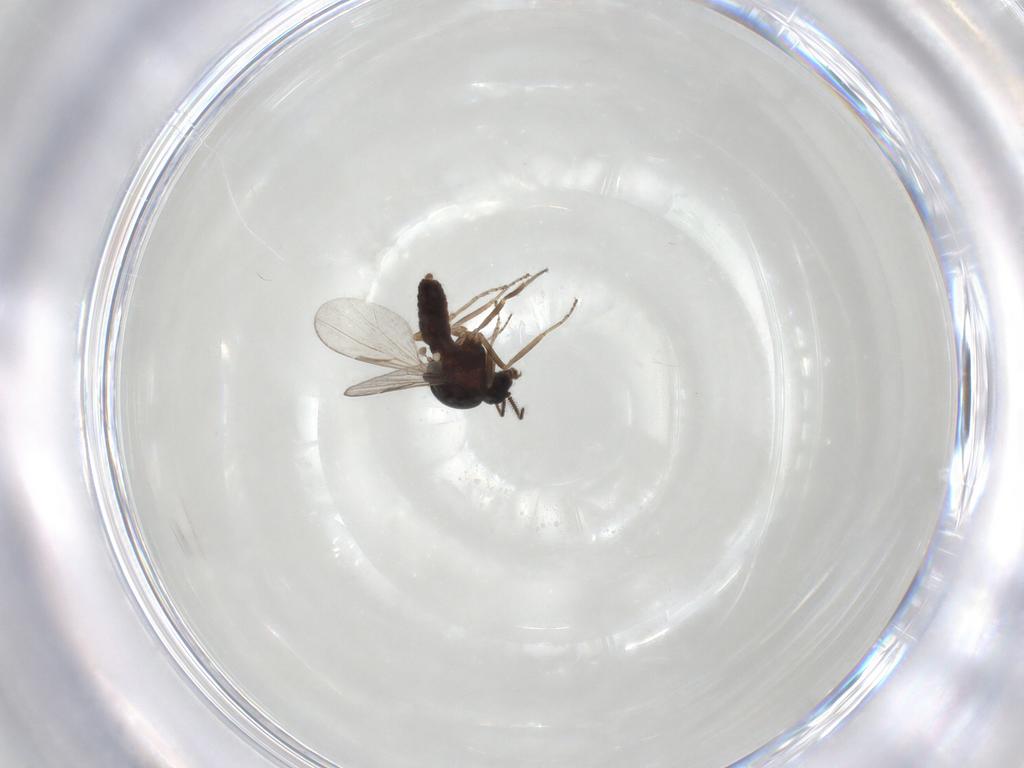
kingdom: Animalia
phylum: Arthropoda
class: Insecta
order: Diptera
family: Ceratopogonidae
